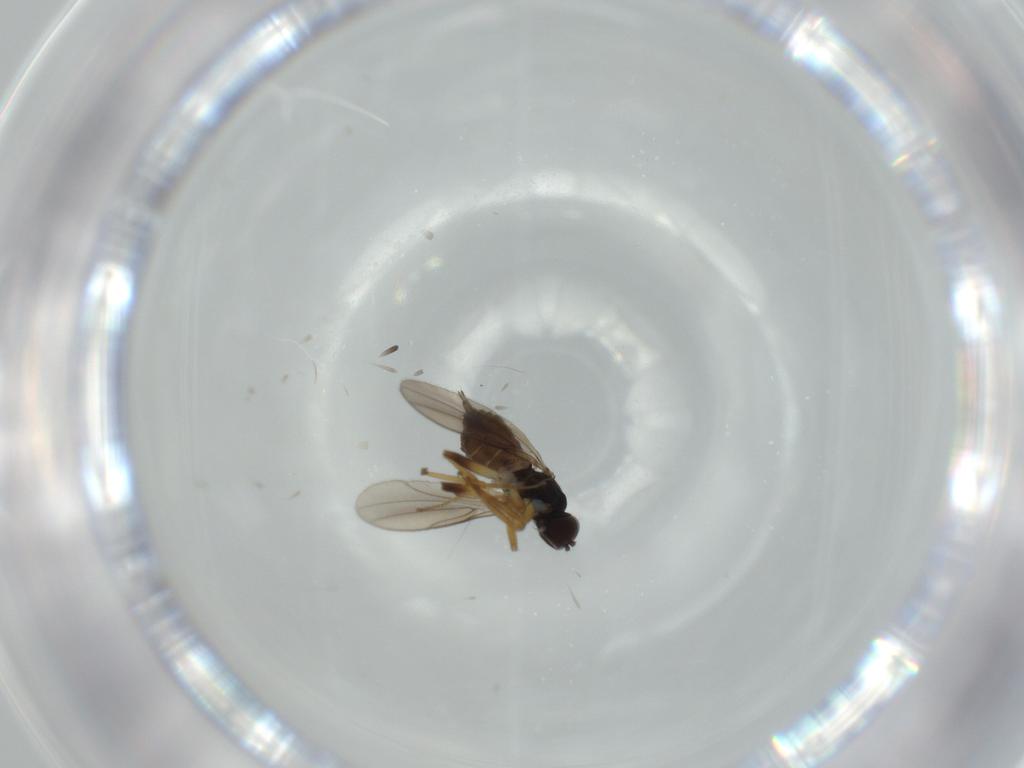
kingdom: Animalia
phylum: Arthropoda
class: Insecta
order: Diptera
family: Hybotidae
